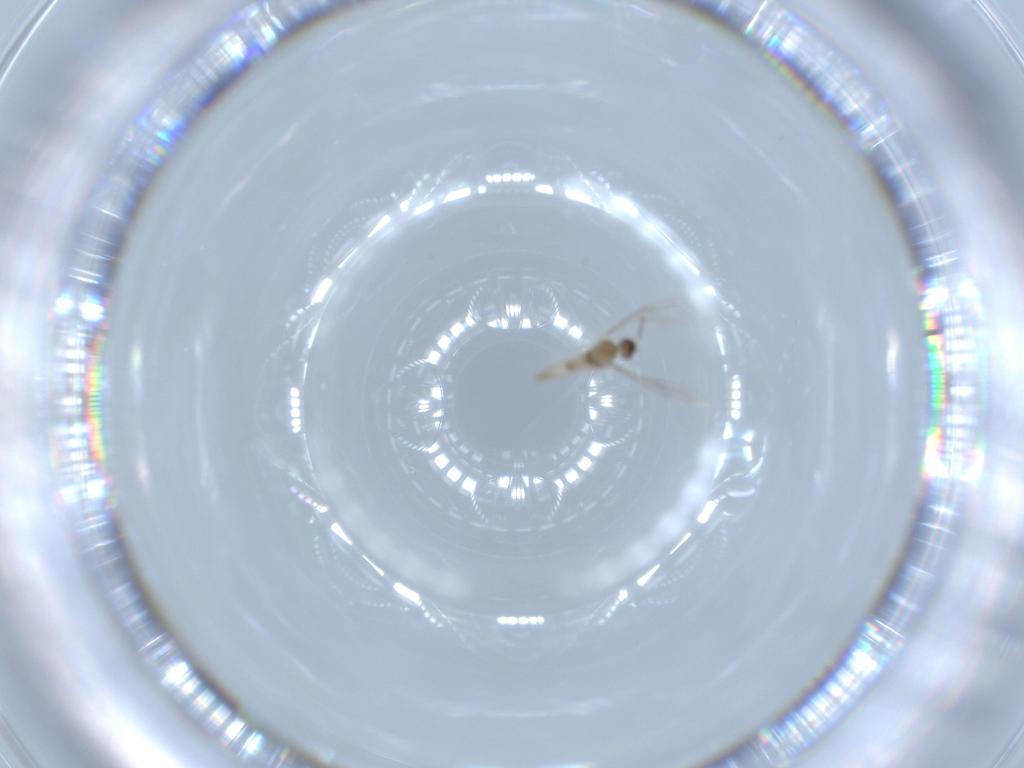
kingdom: Animalia
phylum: Arthropoda
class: Insecta
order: Diptera
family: Cecidomyiidae
